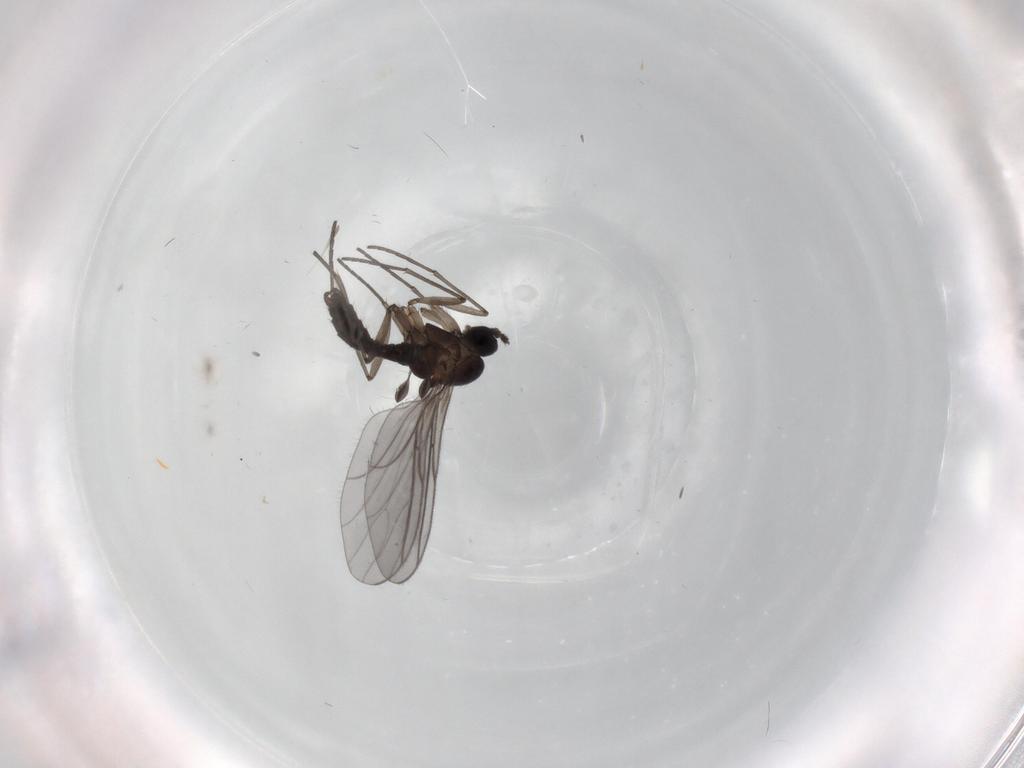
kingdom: Animalia
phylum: Arthropoda
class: Insecta
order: Diptera
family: Sciaridae
